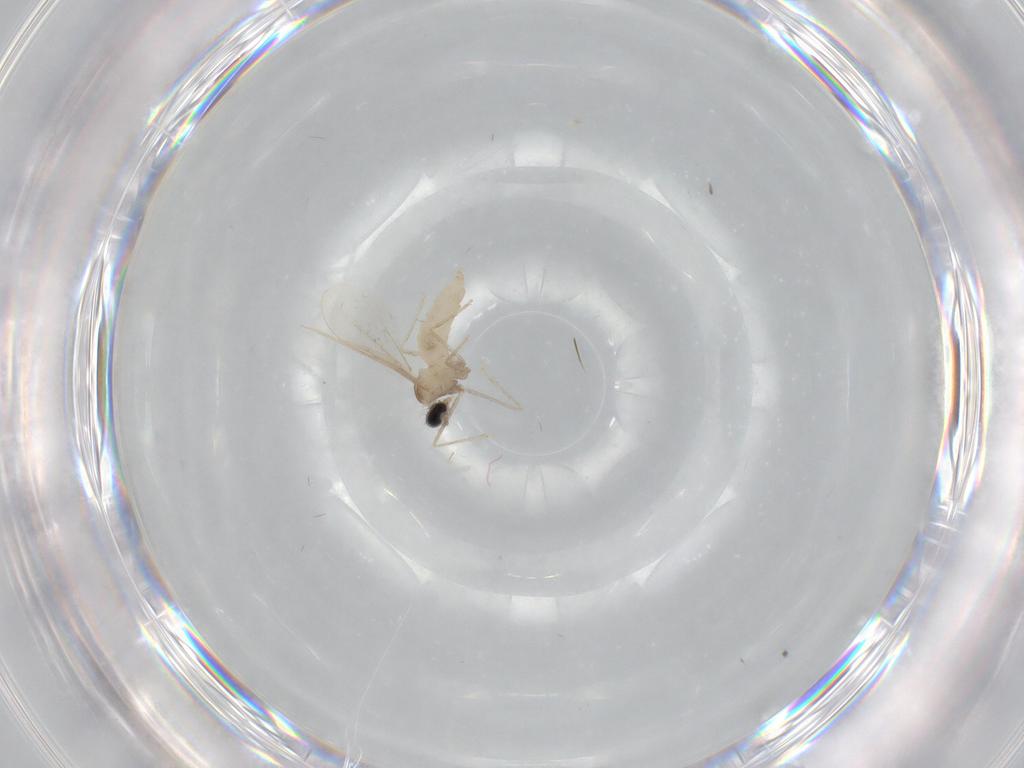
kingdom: Animalia
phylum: Arthropoda
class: Insecta
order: Diptera
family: Cecidomyiidae
